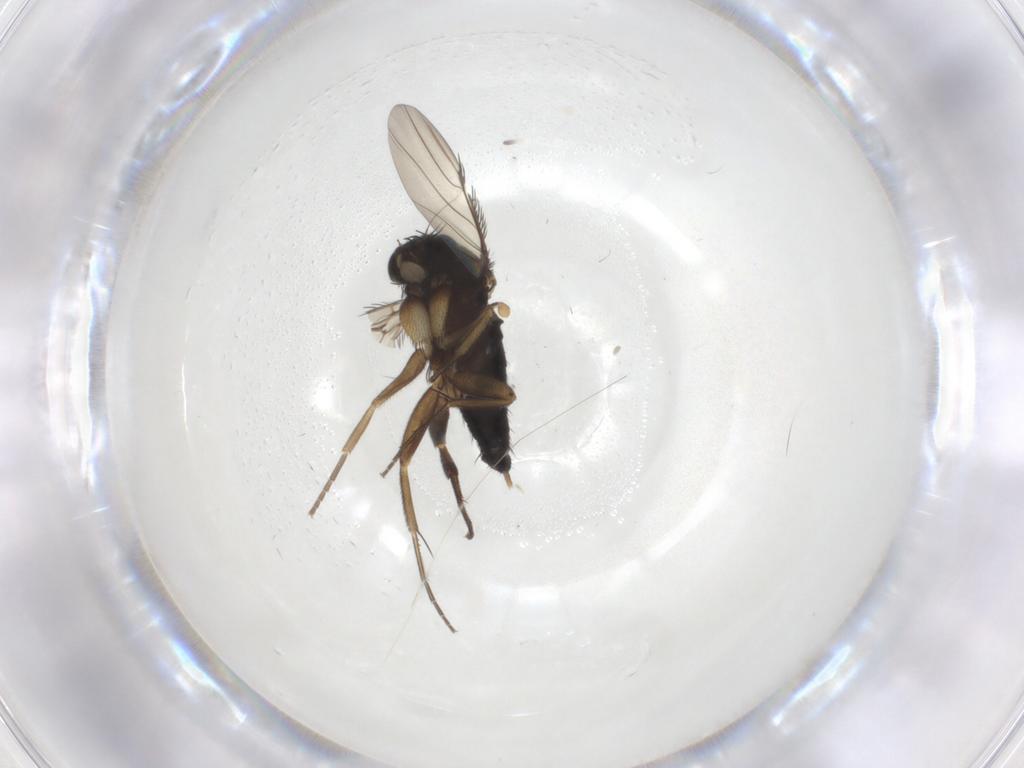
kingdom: Animalia
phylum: Arthropoda
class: Insecta
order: Diptera
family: Phoridae
